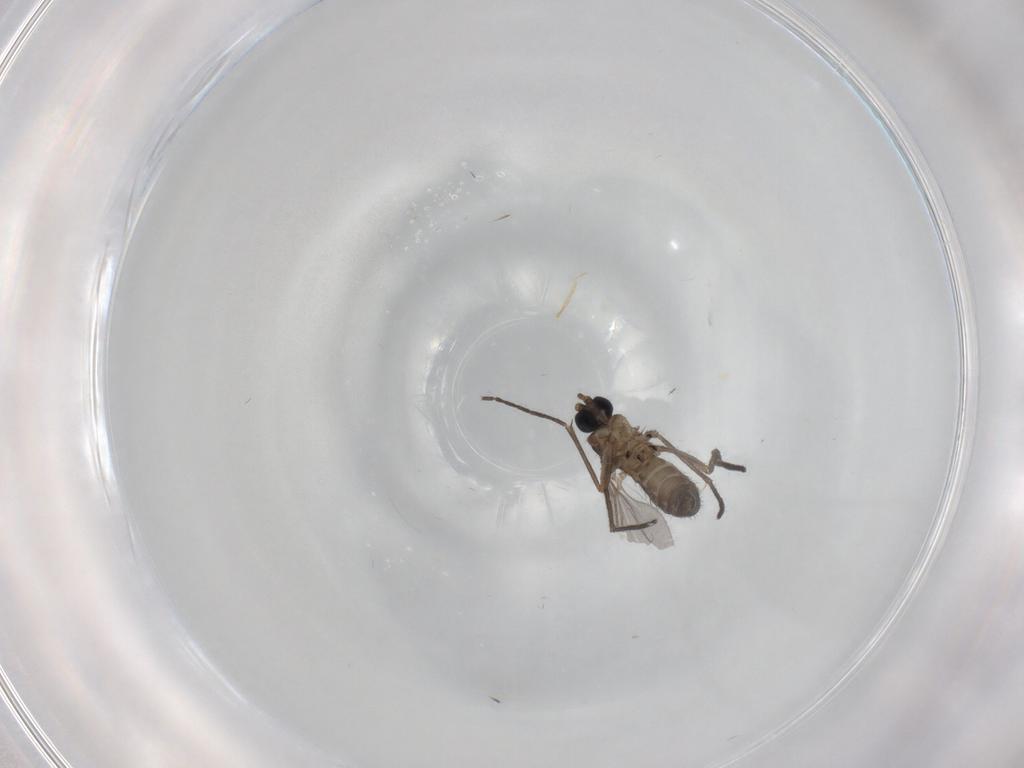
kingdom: Animalia
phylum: Arthropoda
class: Insecta
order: Diptera
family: Sciaridae
